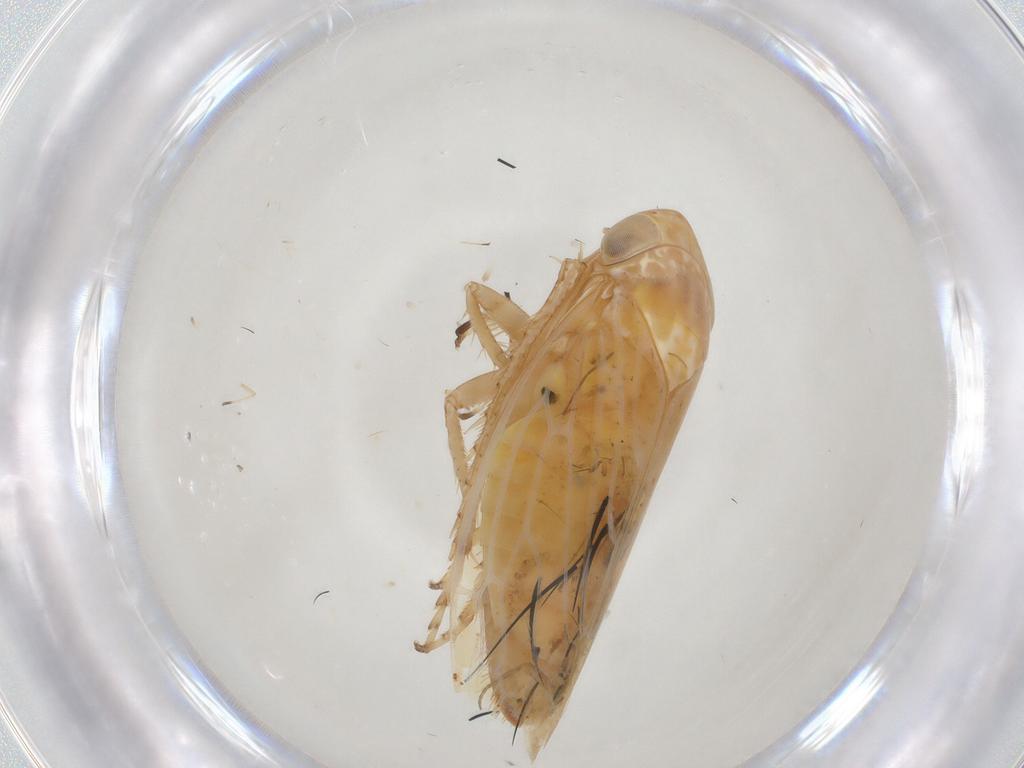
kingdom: Animalia
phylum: Arthropoda
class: Insecta
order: Hemiptera
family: Cicadellidae
